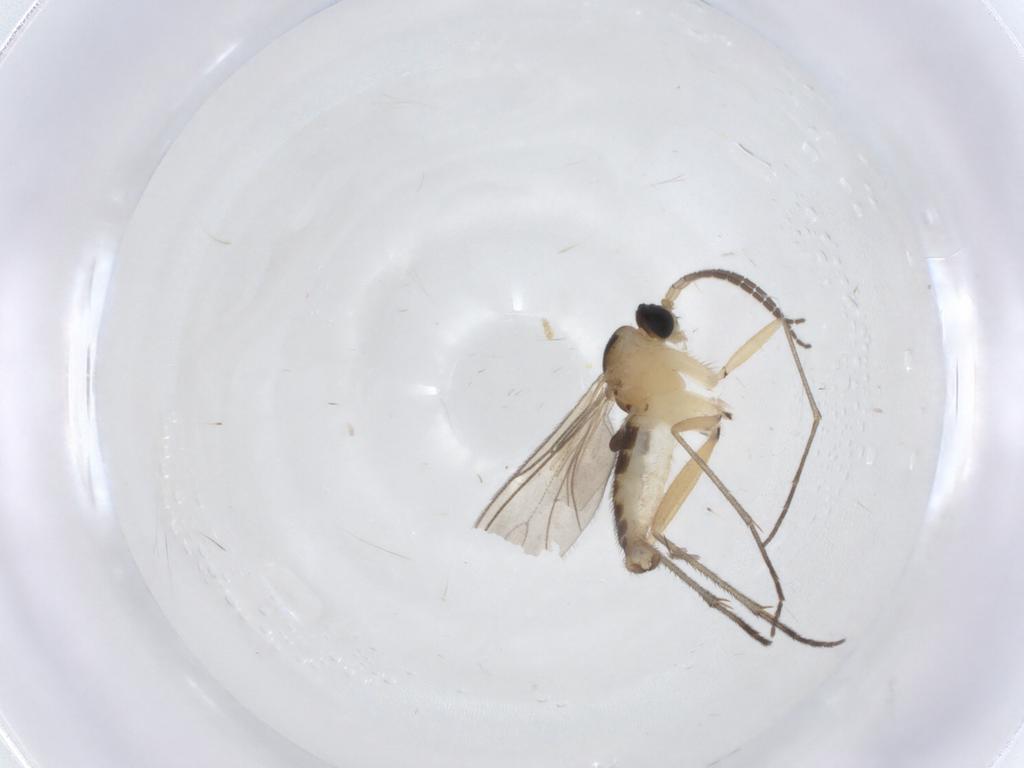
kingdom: Animalia
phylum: Arthropoda
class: Insecta
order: Diptera
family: Sciaridae
